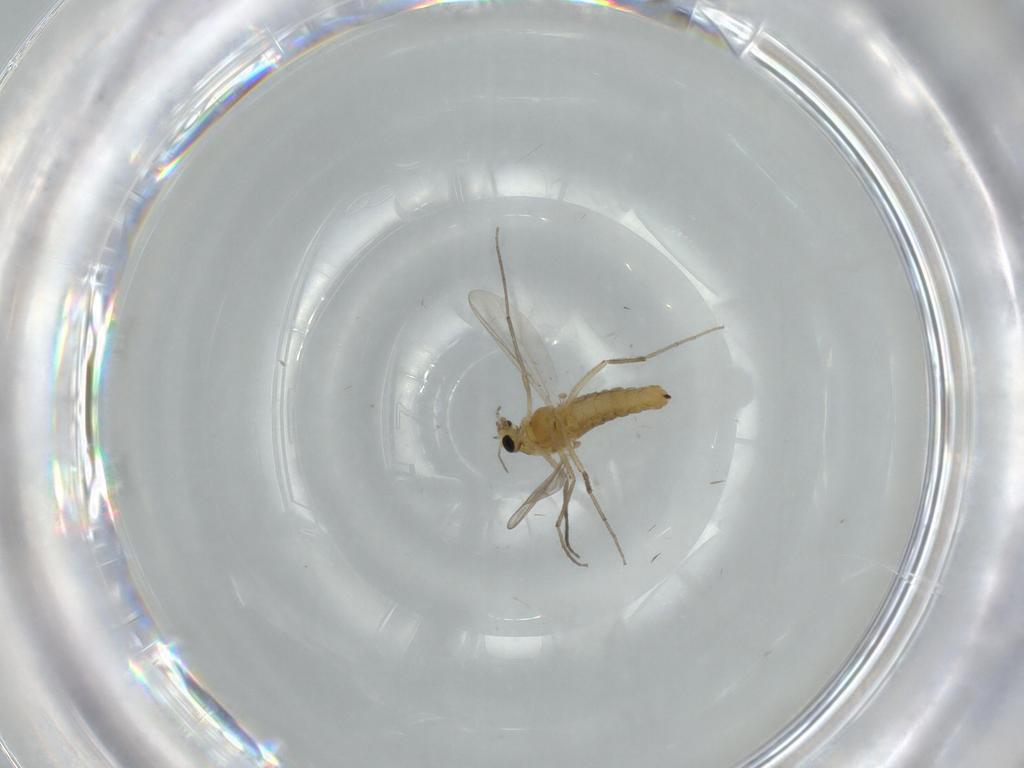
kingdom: Animalia
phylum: Arthropoda
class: Insecta
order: Diptera
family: Chironomidae
